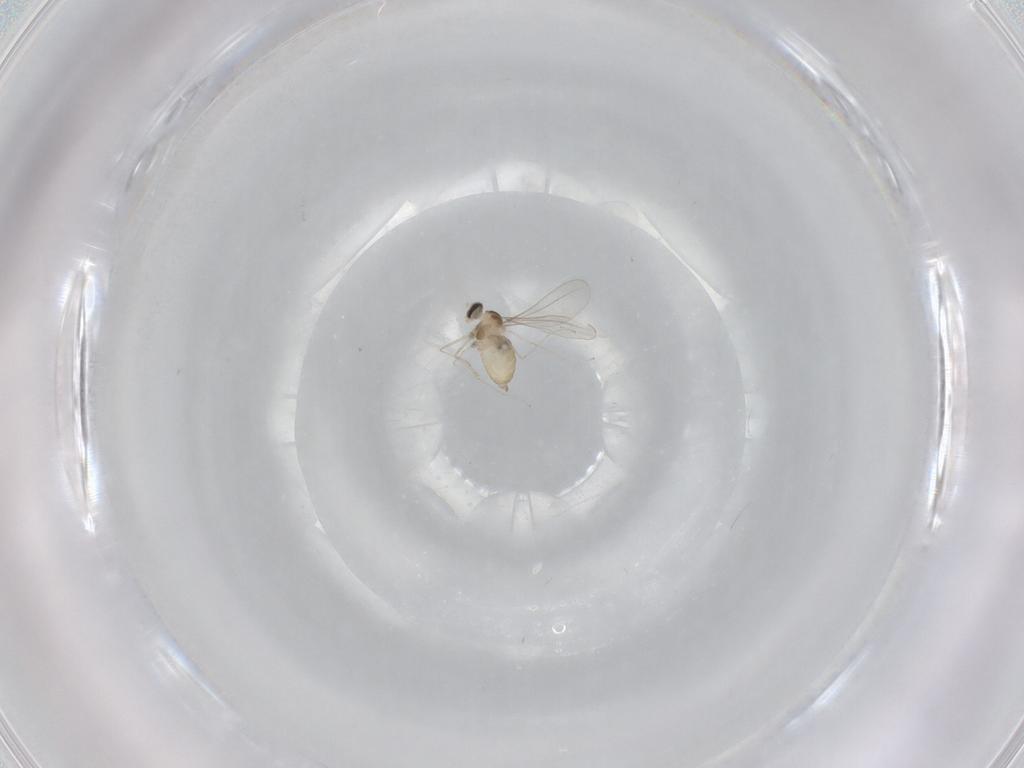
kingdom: Animalia
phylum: Arthropoda
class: Insecta
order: Diptera
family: Cecidomyiidae
